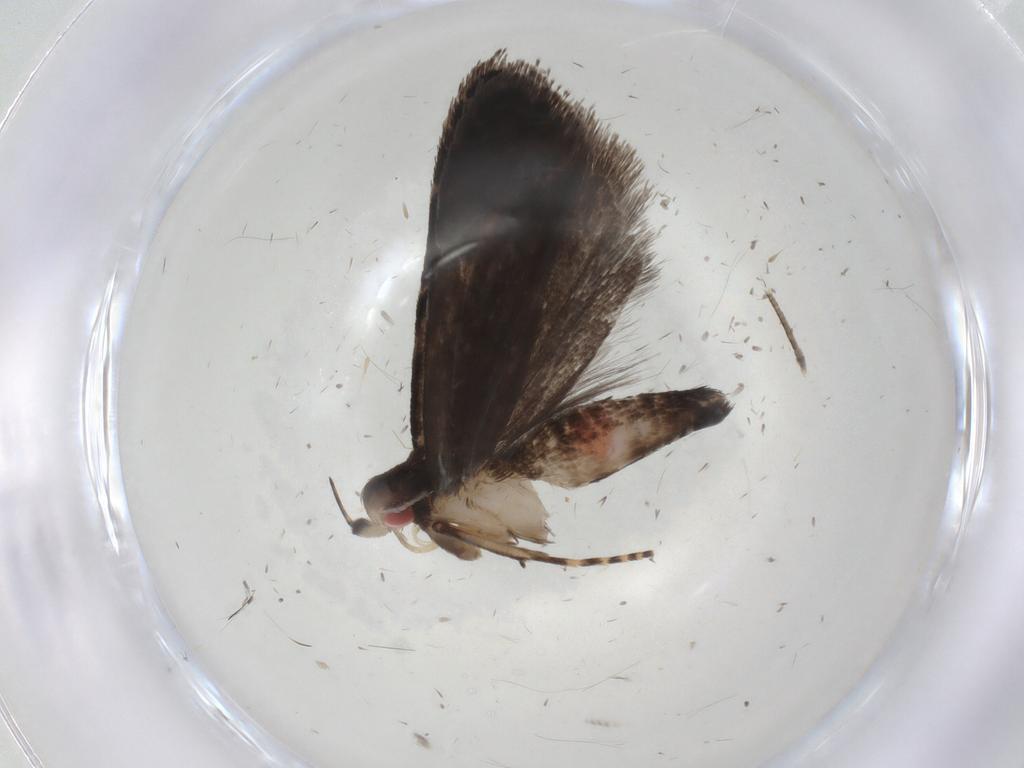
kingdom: Animalia
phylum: Arthropoda
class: Insecta
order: Lepidoptera
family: Gelechiidae
